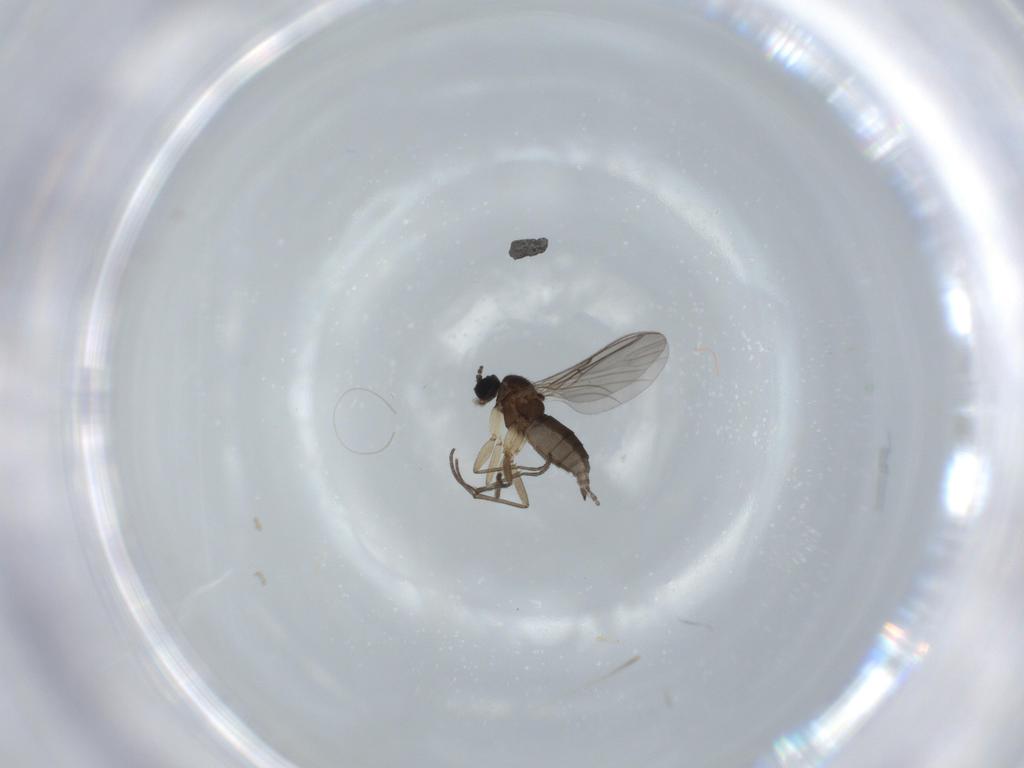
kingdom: Animalia
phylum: Arthropoda
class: Insecta
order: Diptera
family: Sciaridae
